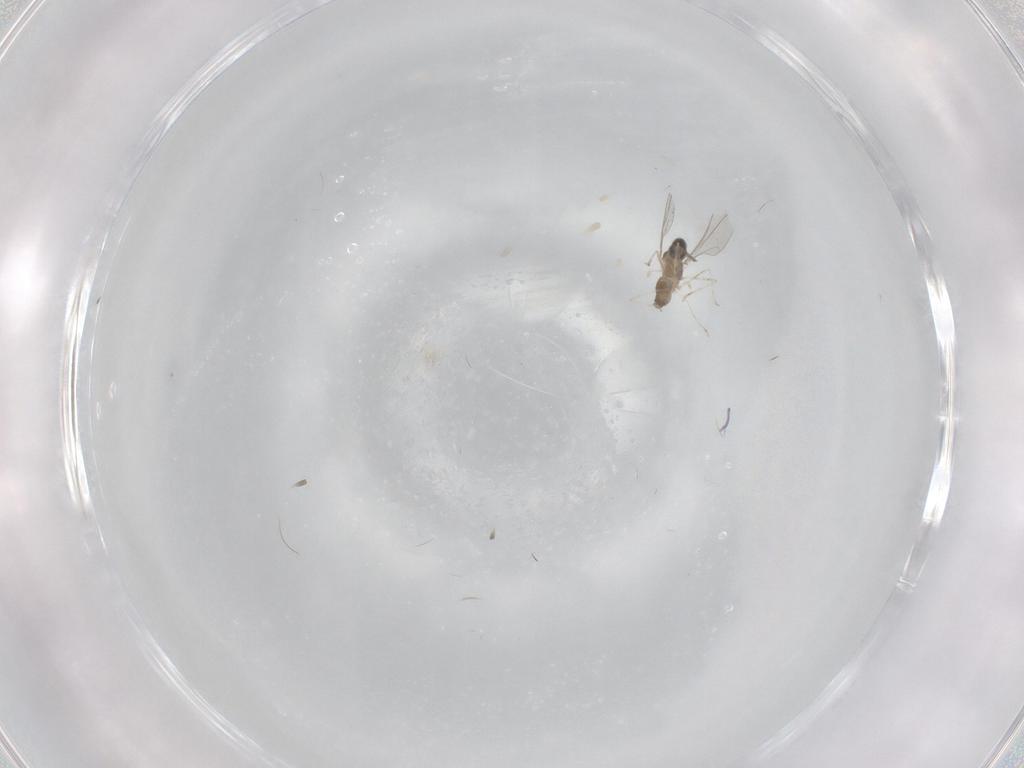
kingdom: Animalia
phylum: Arthropoda
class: Insecta
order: Diptera
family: Cecidomyiidae
